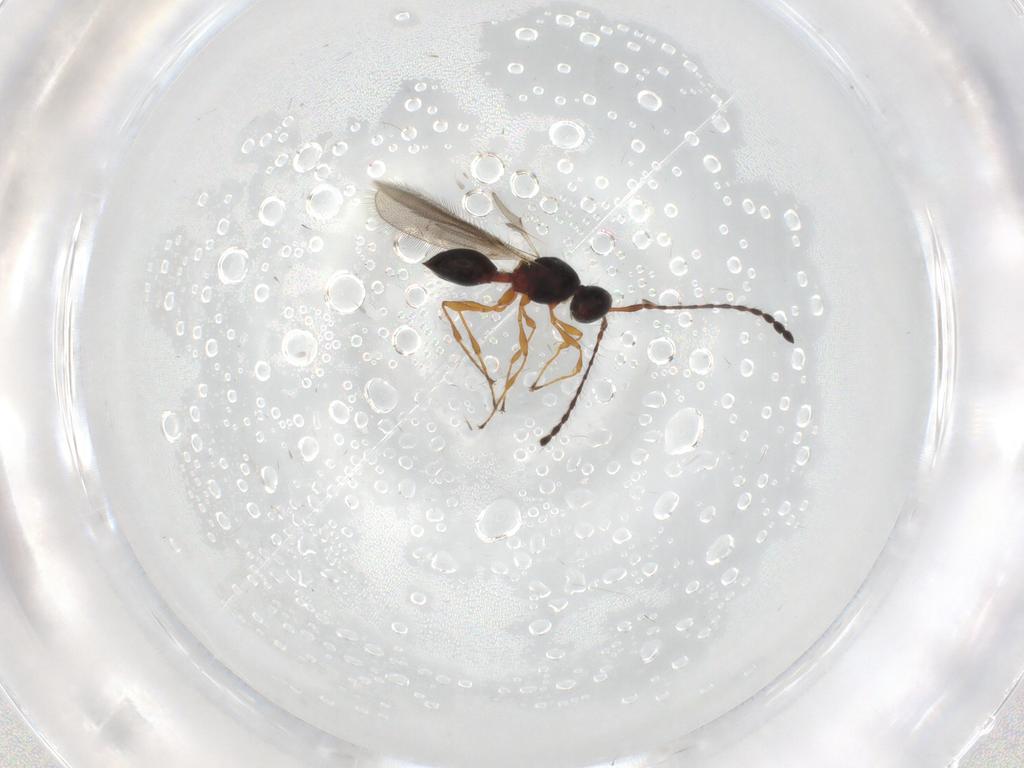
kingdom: Animalia
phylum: Arthropoda
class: Insecta
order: Hymenoptera
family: Diapriidae
